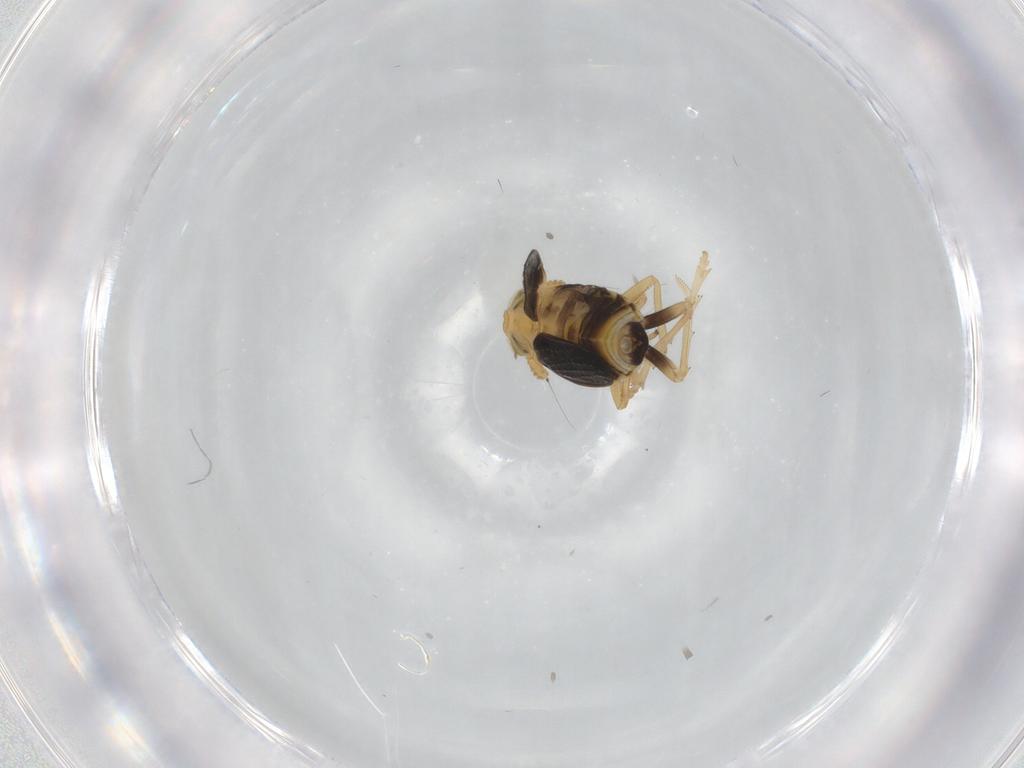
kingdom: Animalia
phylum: Arthropoda
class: Insecta
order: Hemiptera
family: Delphacidae
